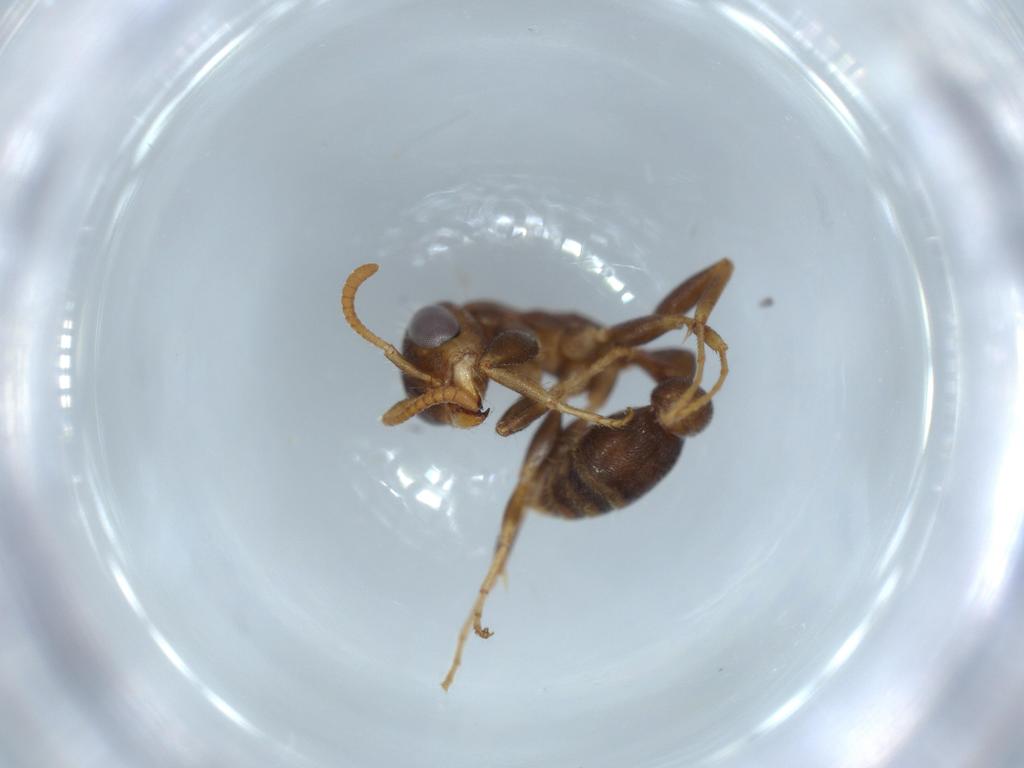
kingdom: Animalia
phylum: Arthropoda
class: Insecta
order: Hymenoptera
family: Formicidae
